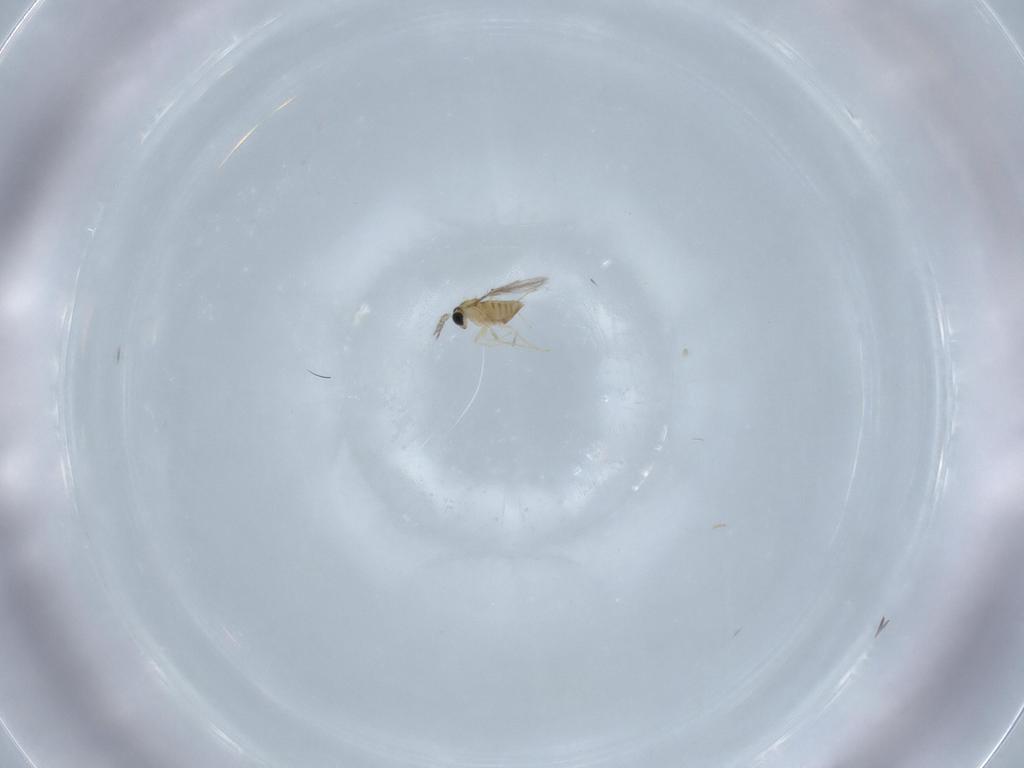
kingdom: Animalia
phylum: Arthropoda
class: Insecta
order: Hymenoptera
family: Trichogrammatidae
